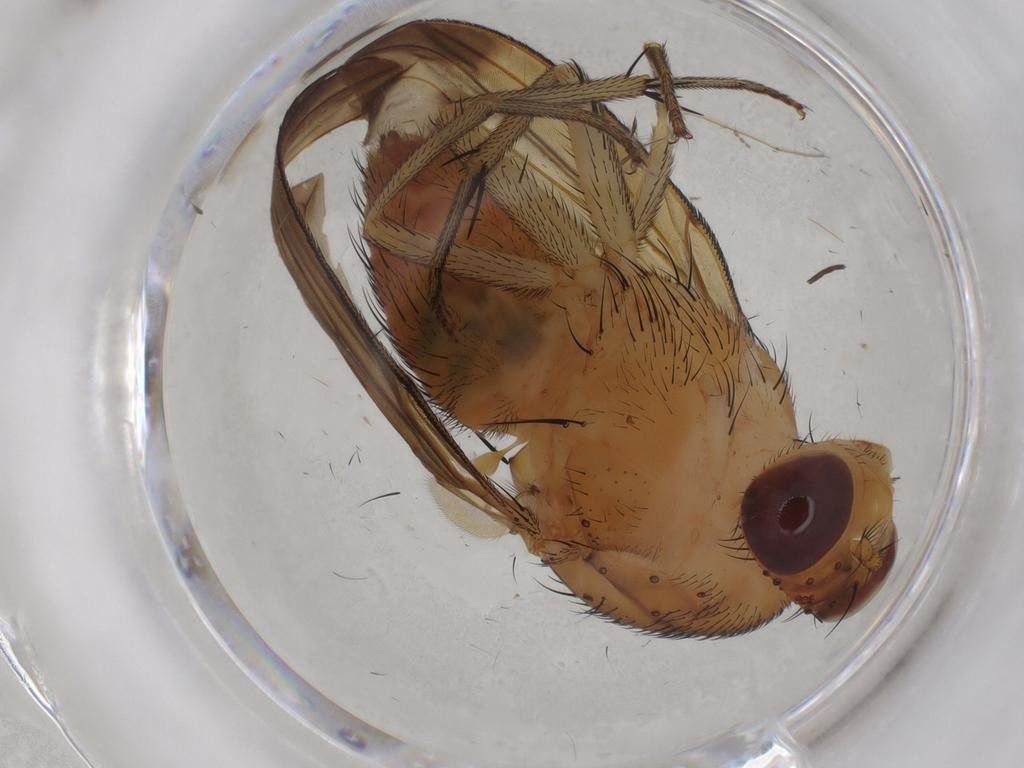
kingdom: Animalia
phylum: Arthropoda
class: Insecta
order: Diptera
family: Lauxaniidae
